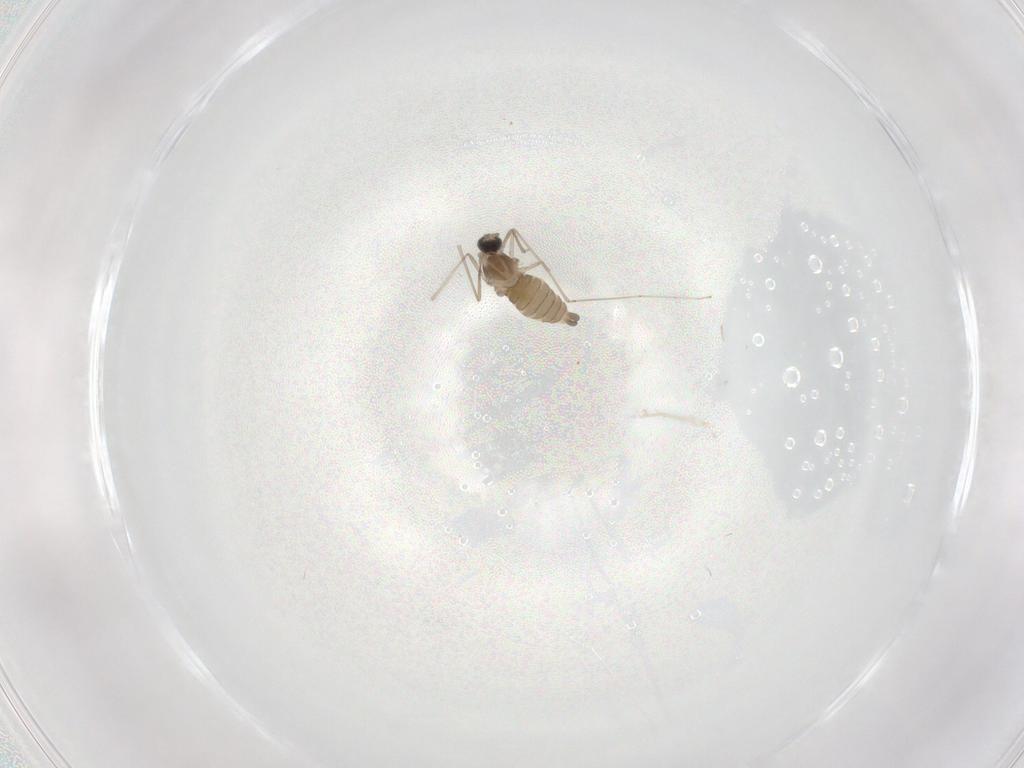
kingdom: Animalia
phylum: Arthropoda
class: Insecta
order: Diptera
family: Cecidomyiidae
